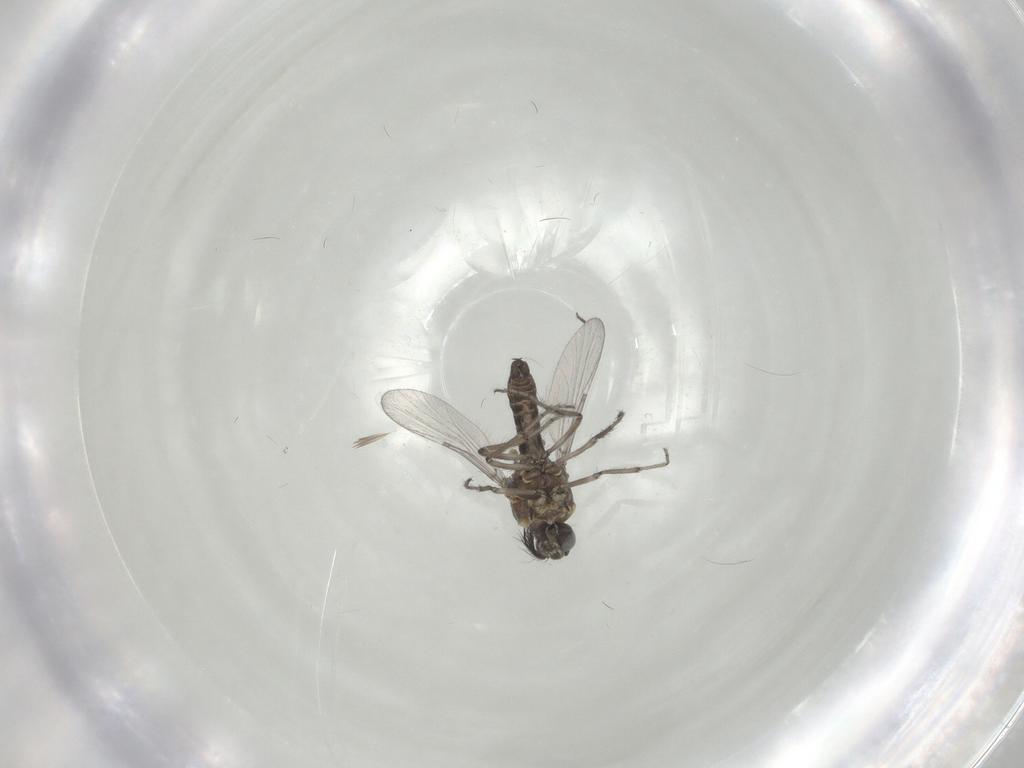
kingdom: Animalia
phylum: Arthropoda
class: Insecta
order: Diptera
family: Ceratopogonidae
